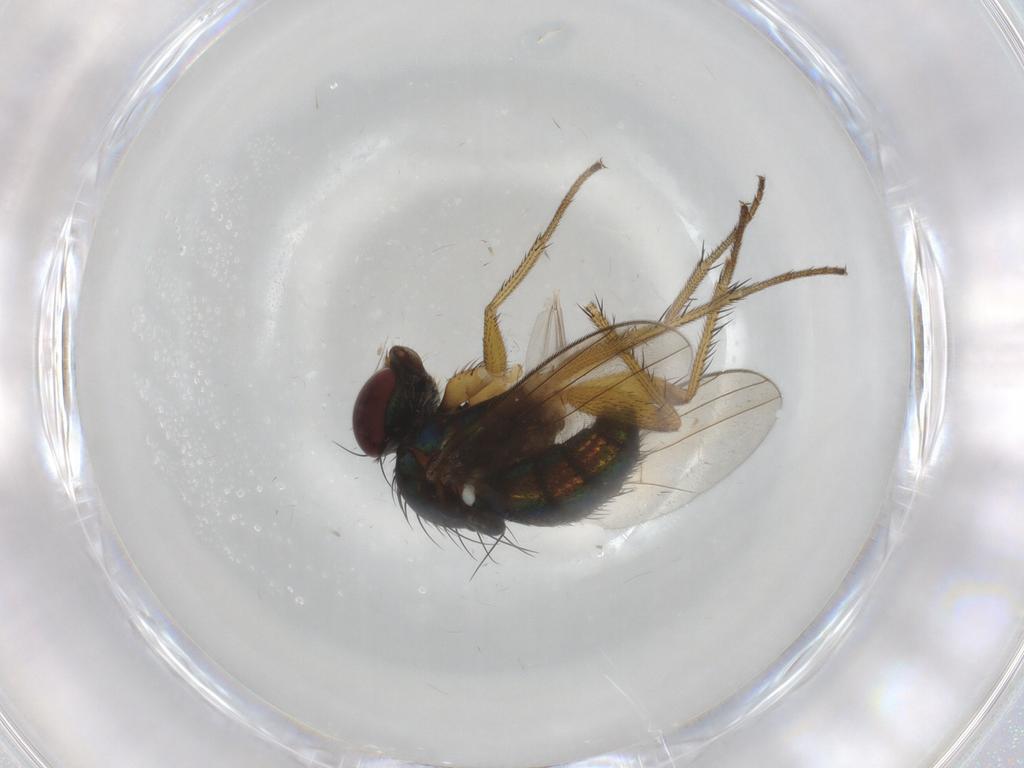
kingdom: Animalia
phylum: Arthropoda
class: Insecta
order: Diptera
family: Dolichopodidae
